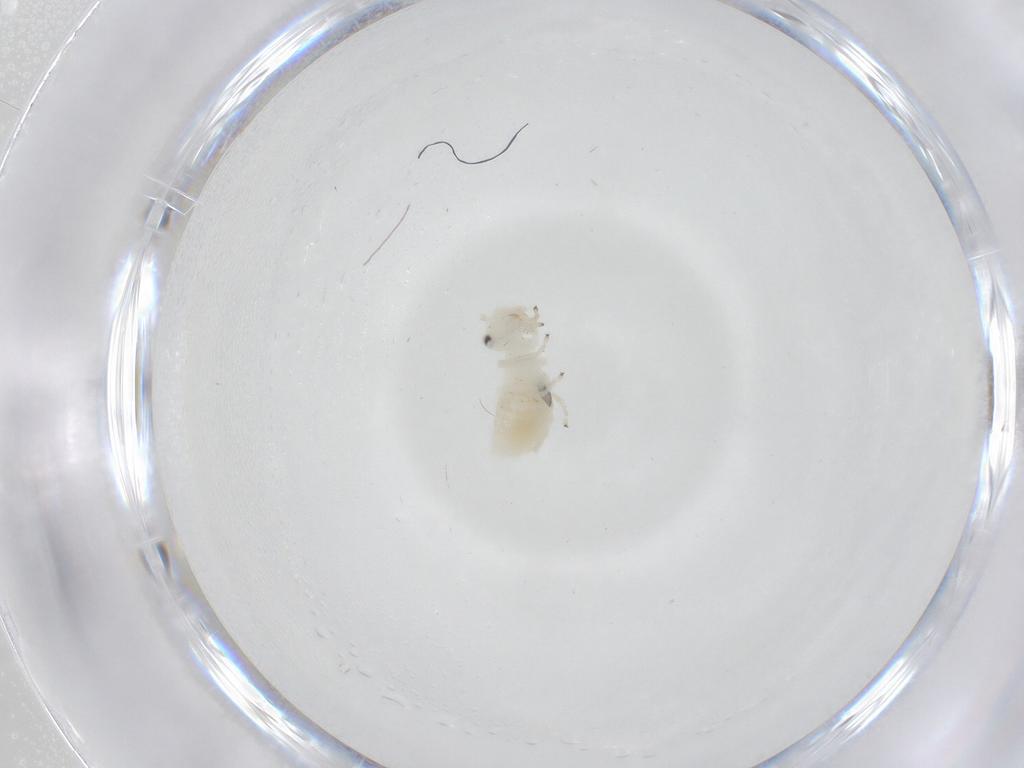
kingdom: Animalia
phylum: Arthropoda
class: Insecta
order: Psocodea
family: Caeciliusidae
